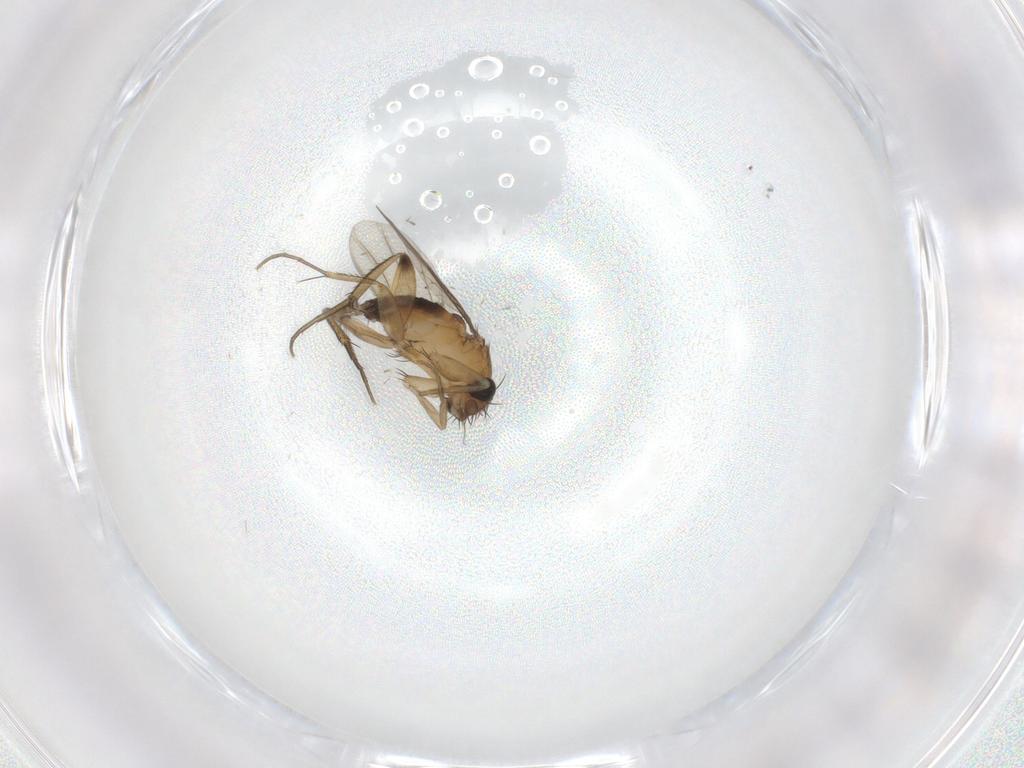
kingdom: Animalia
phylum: Arthropoda
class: Insecta
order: Diptera
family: Phoridae
